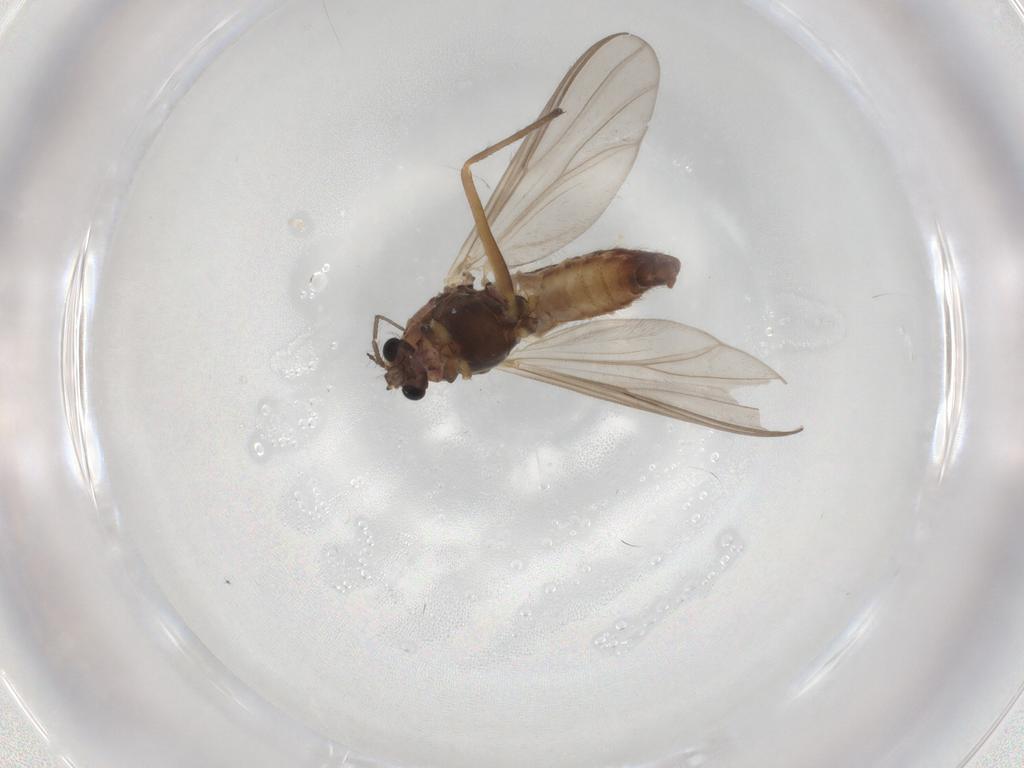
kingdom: Animalia
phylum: Arthropoda
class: Insecta
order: Diptera
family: Chironomidae
